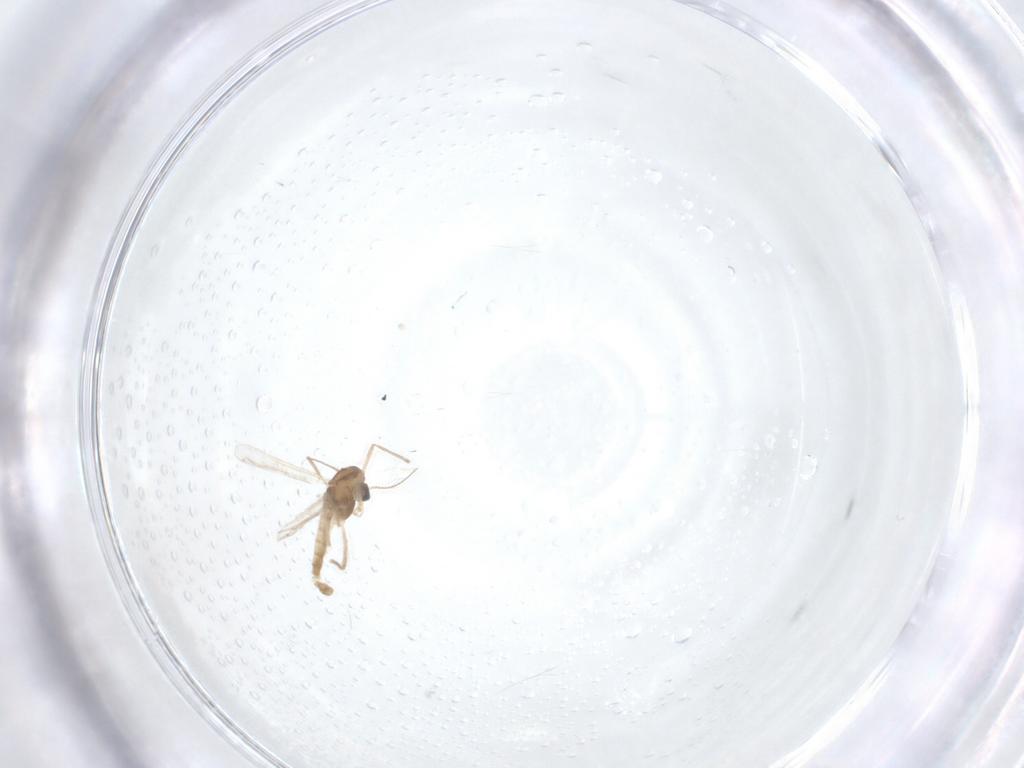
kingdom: Animalia
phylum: Arthropoda
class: Insecta
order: Diptera
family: Chironomidae
